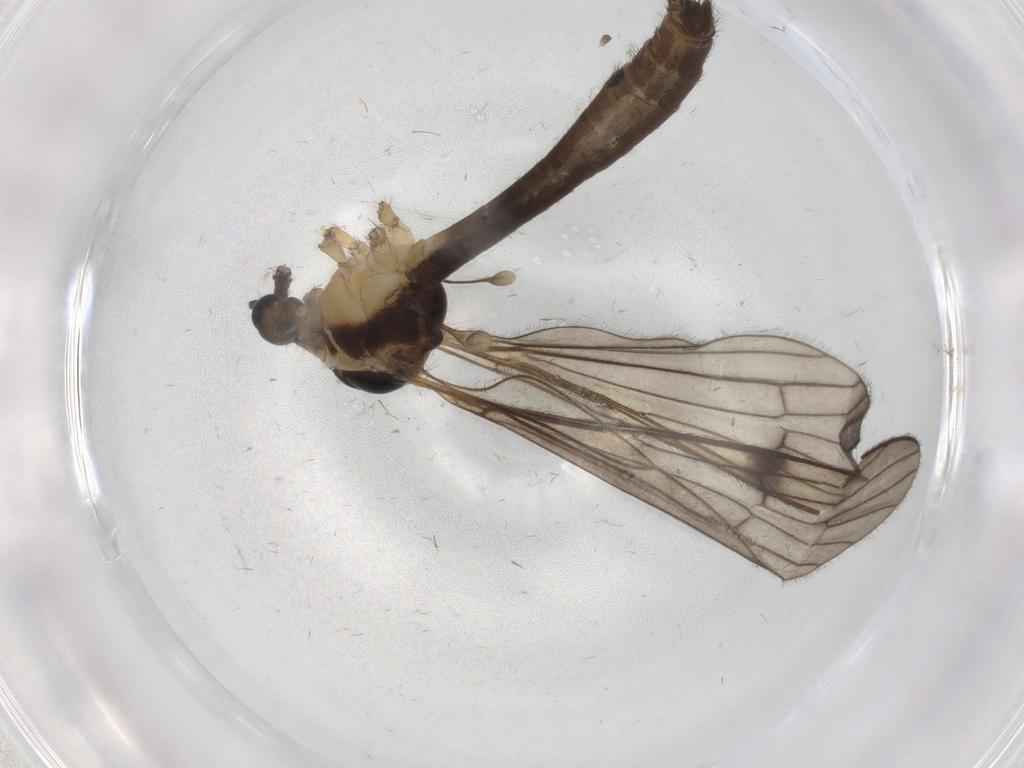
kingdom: Animalia
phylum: Arthropoda
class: Insecta
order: Diptera
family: Limoniidae
